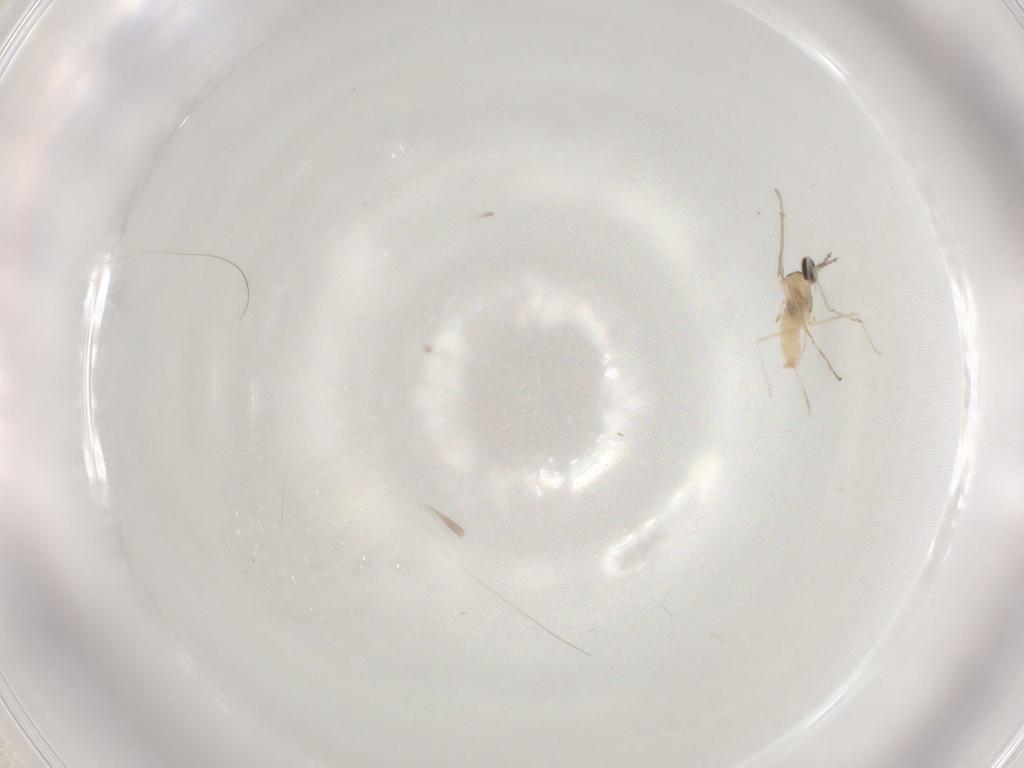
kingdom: Animalia
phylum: Arthropoda
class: Insecta
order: Diptera
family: Cecidomyiidae
